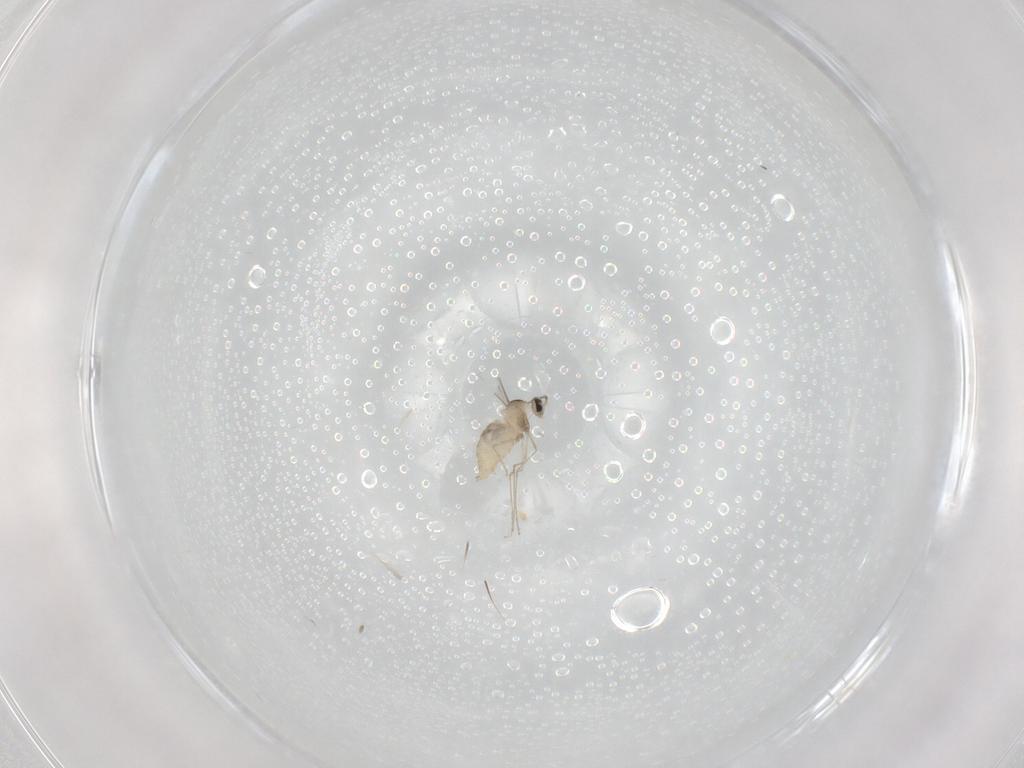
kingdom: Animalia
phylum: Arthropoda
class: Insecta
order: Diptera
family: Cecidomyiidae
